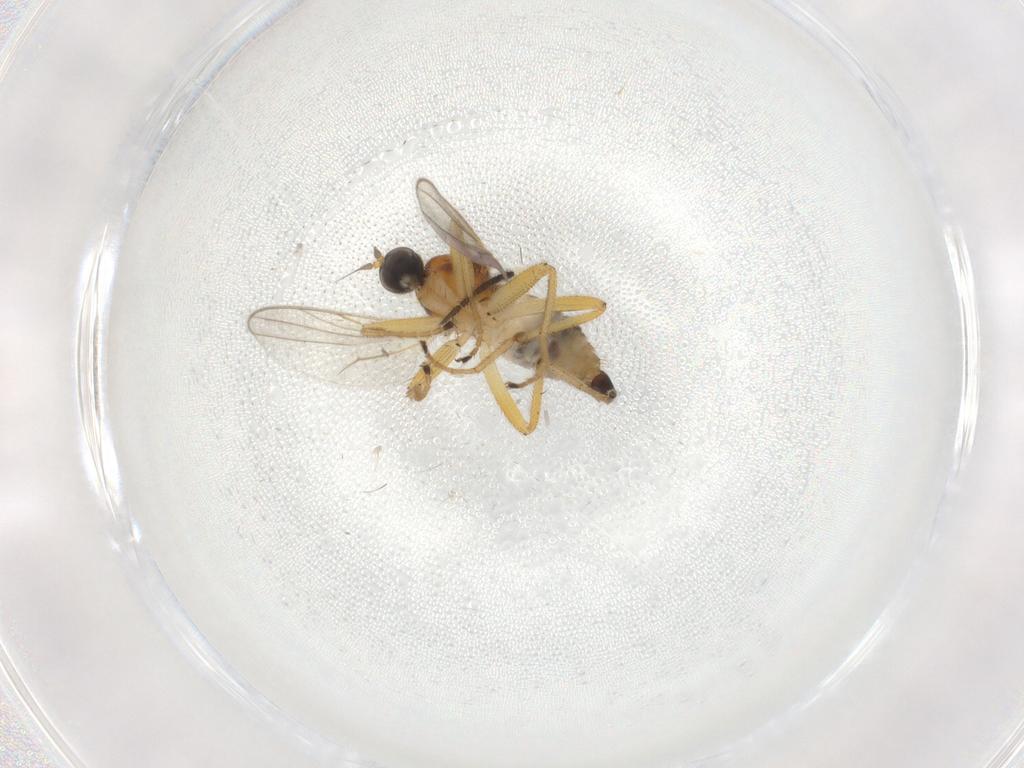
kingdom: Animalia
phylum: Arthropoda
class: Insecta
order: Diptera
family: Hybotidae
